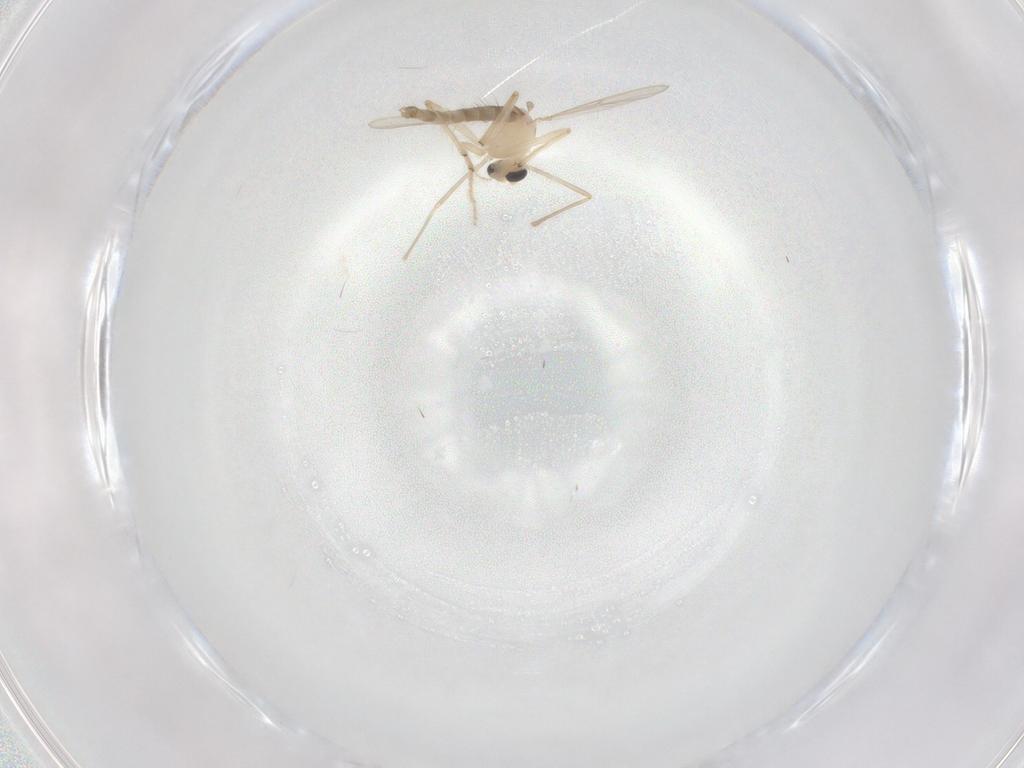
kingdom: Animalia
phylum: Arthropoda
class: Insecta
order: Diptera
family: Chironomidae
